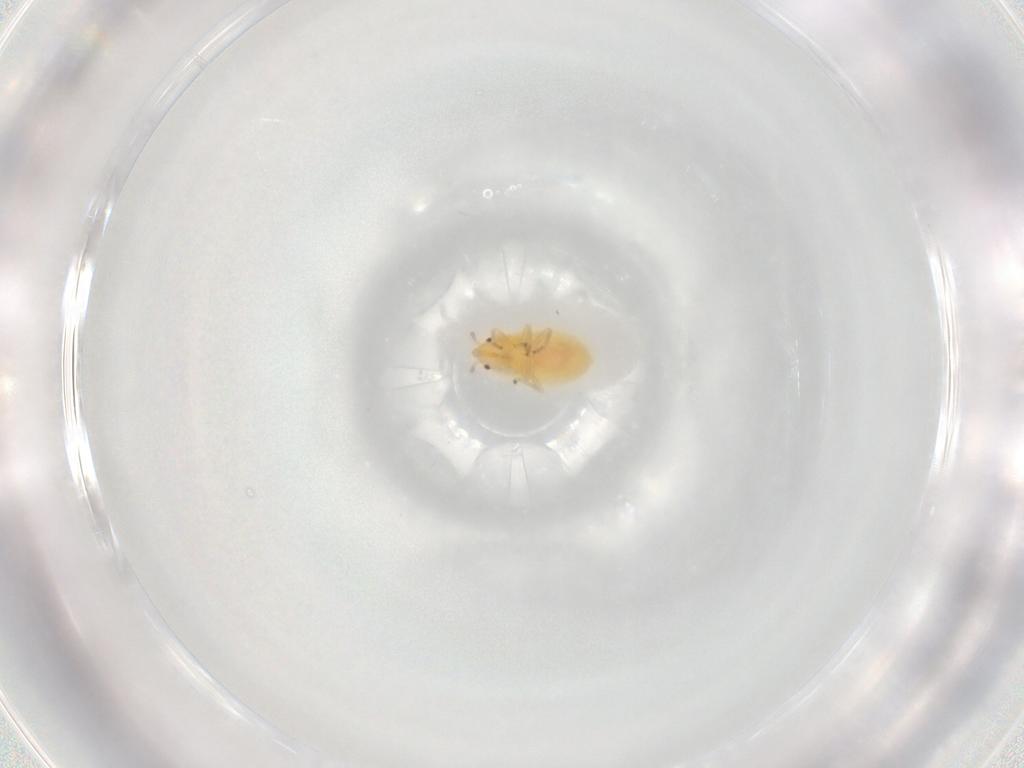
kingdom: Animalia
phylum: Arthropoda
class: Insecta
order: Hemiptera
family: Anthocoridae
